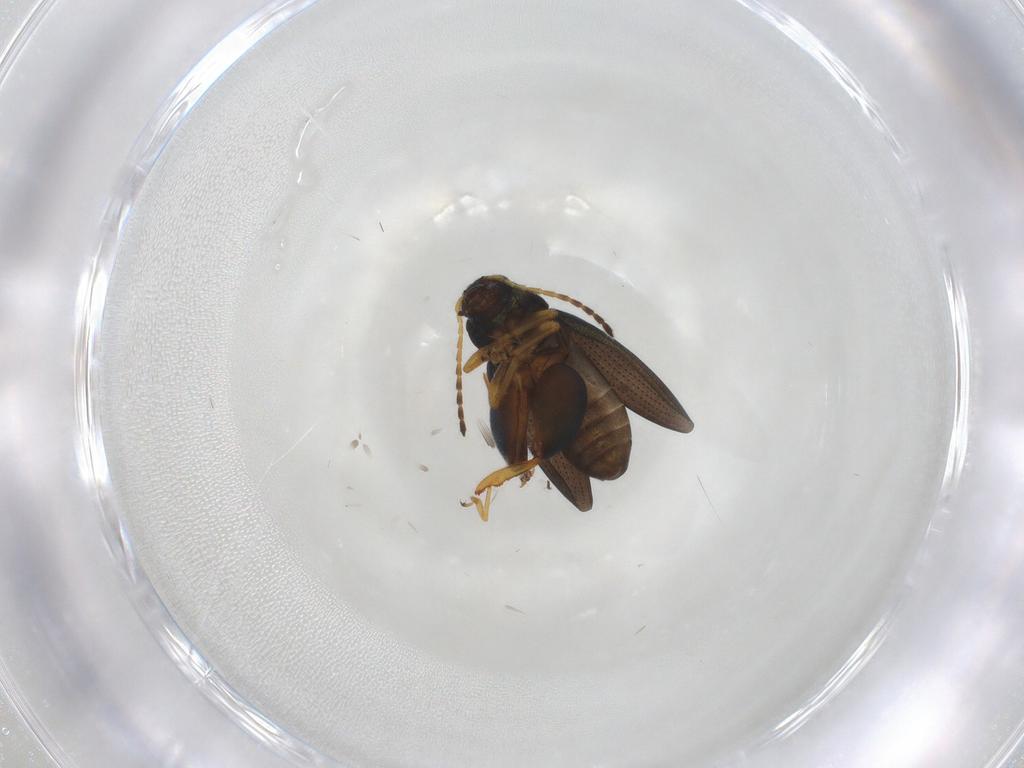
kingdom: Animalia
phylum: Arthropoda
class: Insecta
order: Coleoptera
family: Chrysomelidae
